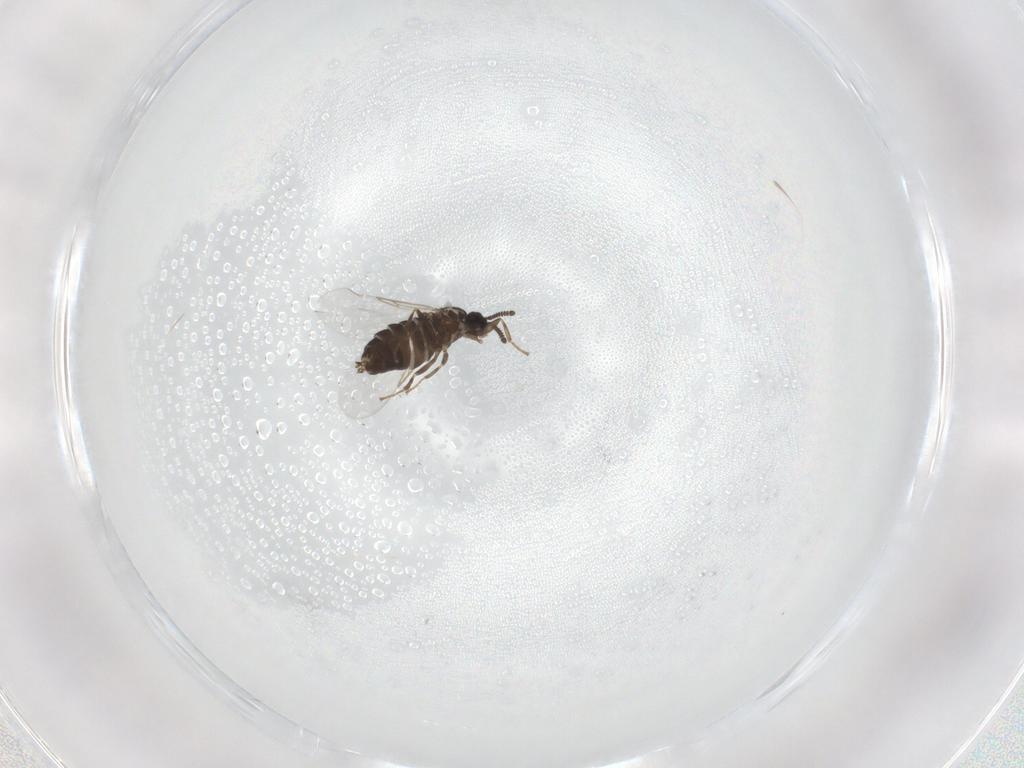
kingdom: Animalia
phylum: Arthropoda
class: Insecta
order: Diptera
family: Scatopsidae
